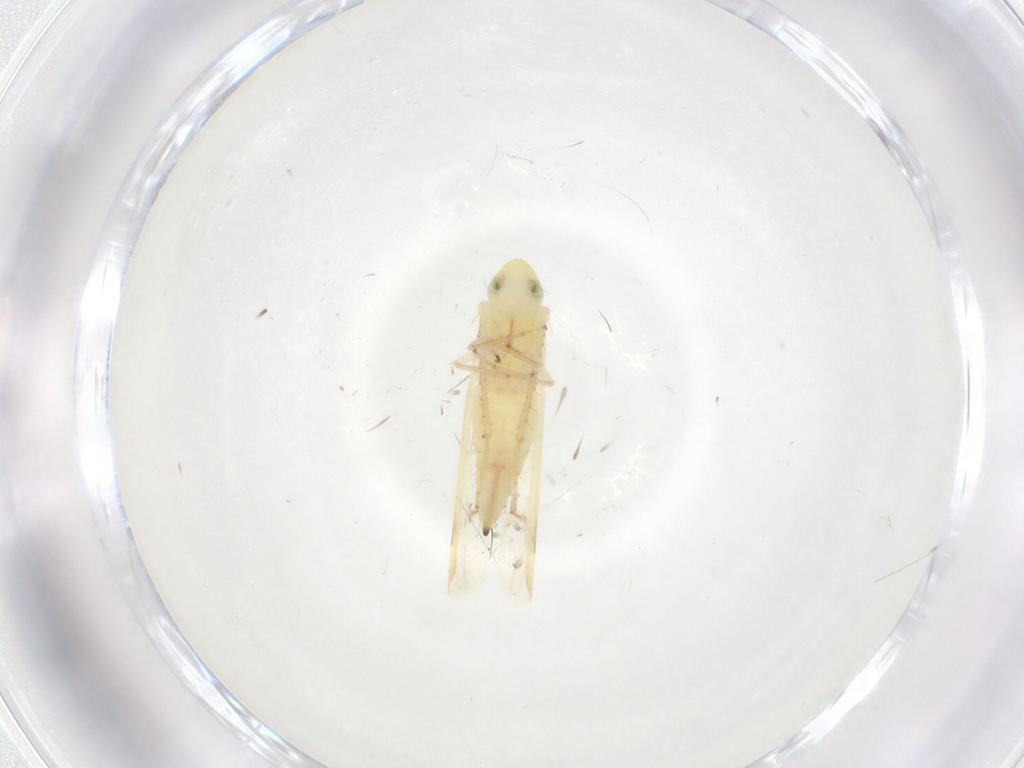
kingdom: Animalia
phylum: Arthropoda
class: Insecta
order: Hemiptera
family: Cicadellidae
